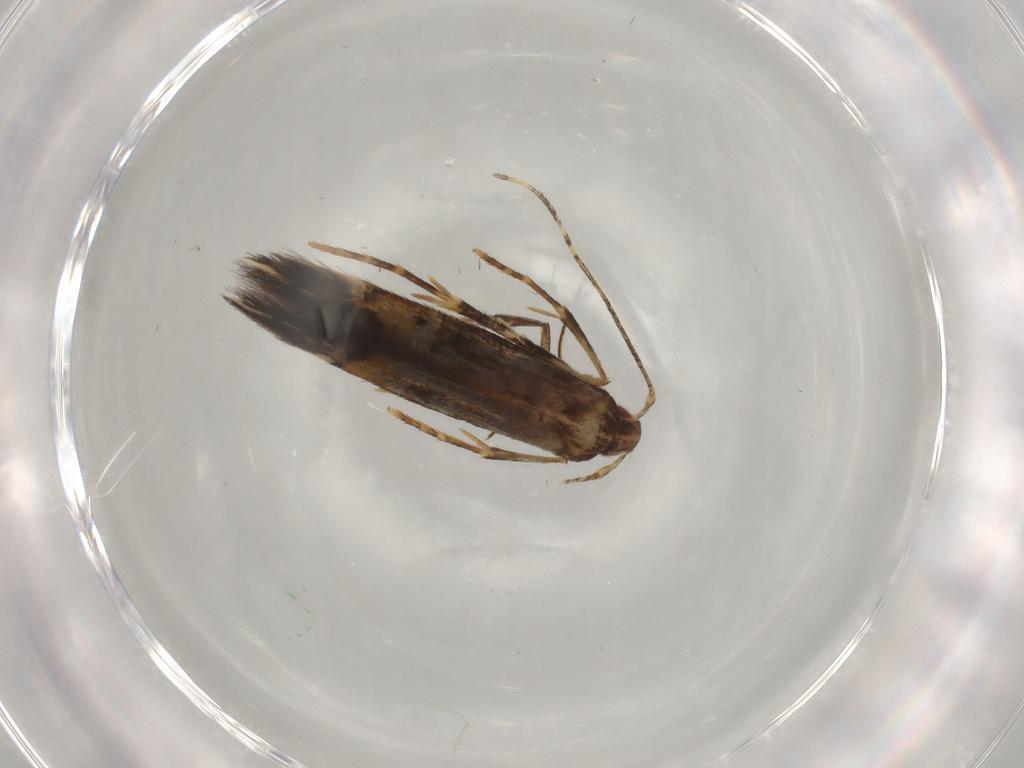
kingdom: Animalia
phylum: Arthropoda
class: Insecta
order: Lepidoptera
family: Cosmopterigidae
